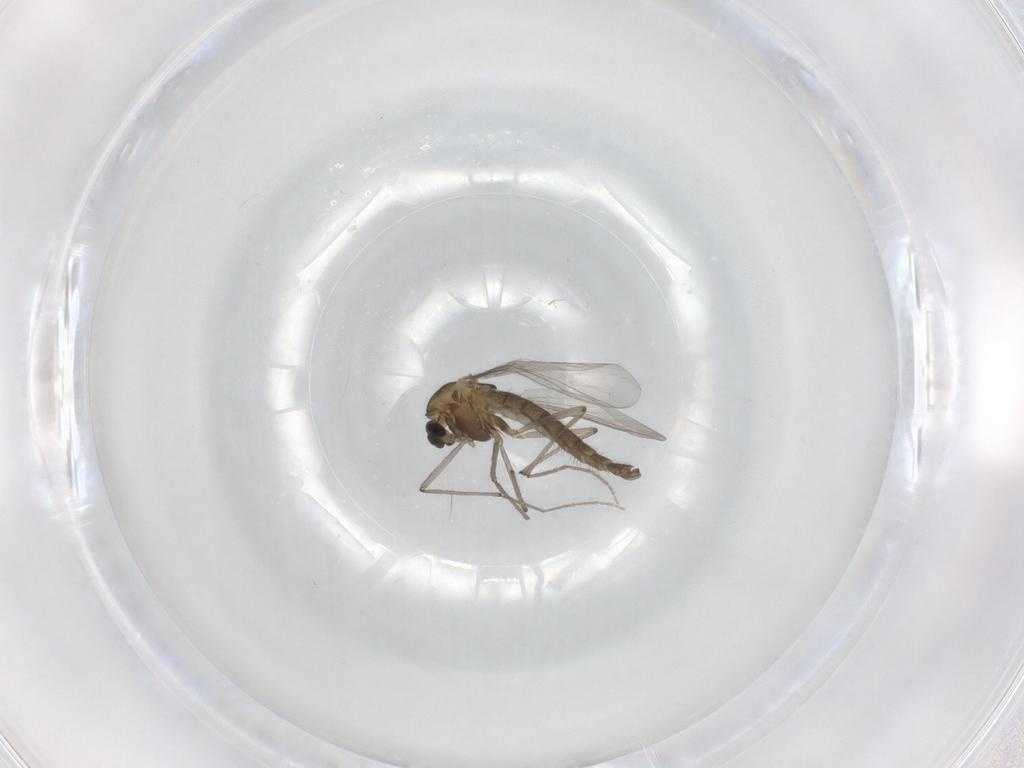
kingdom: Animalia
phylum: Arthropoda
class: Insecta
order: Diptera
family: Chironomidae
